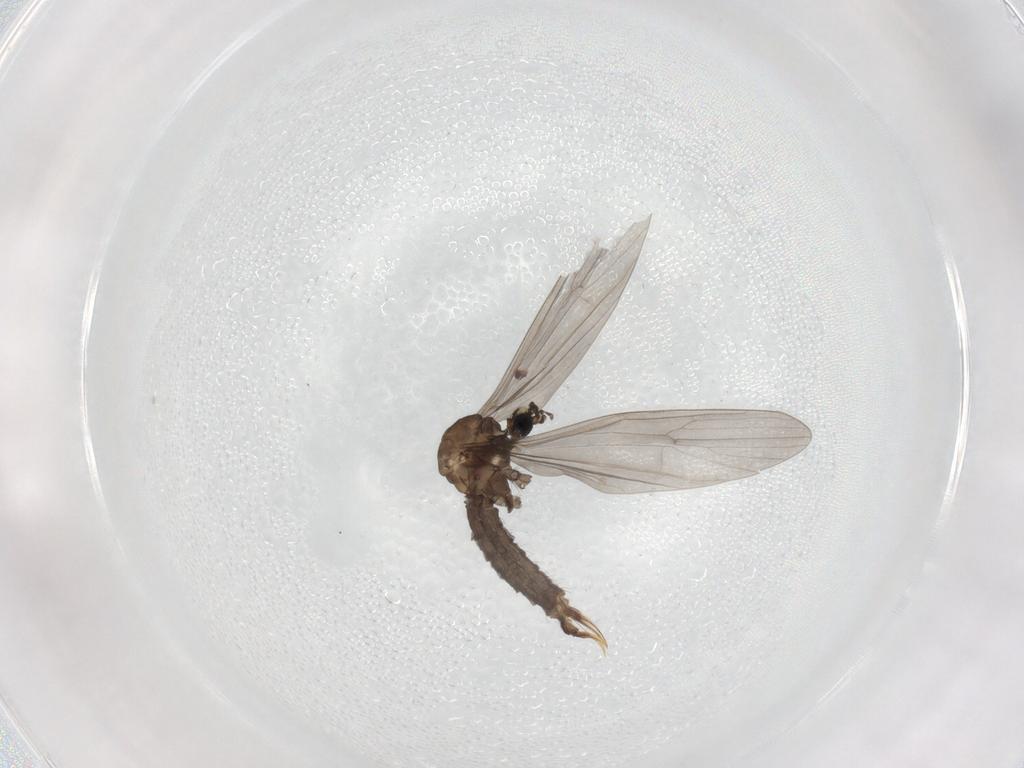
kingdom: Animalia
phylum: Arthropoda
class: Insecta
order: Diptera
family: Limoniidae
